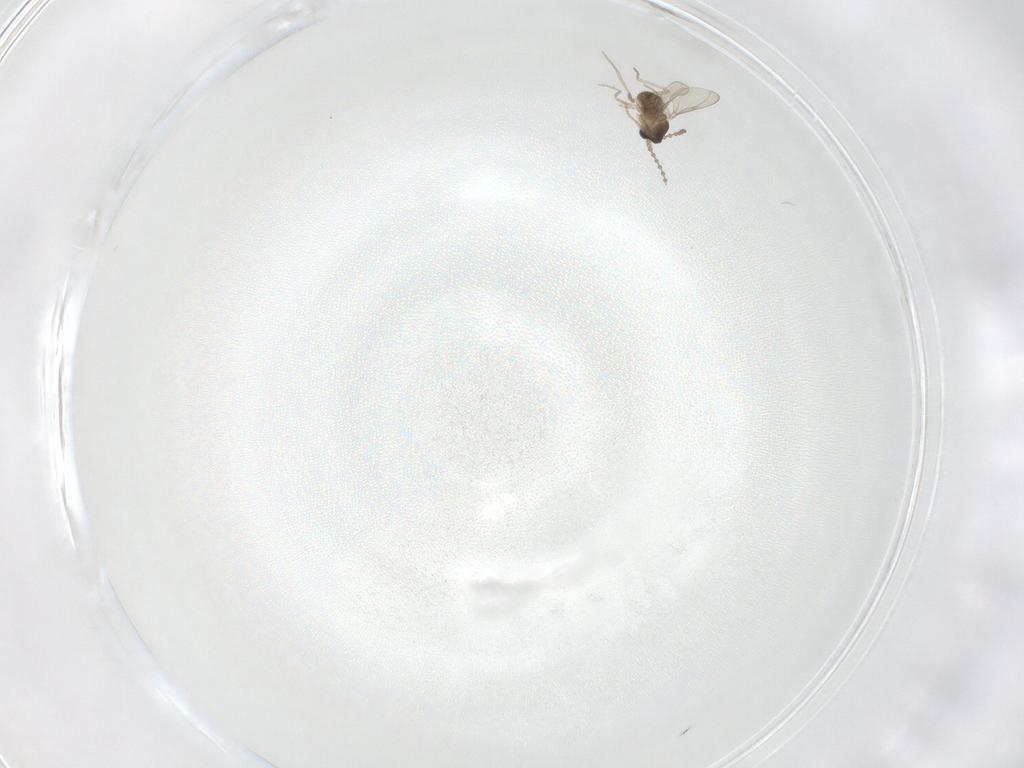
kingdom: Animalia
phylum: Arthropoda
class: Insecta
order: Diptera
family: Cecidomyiidae
